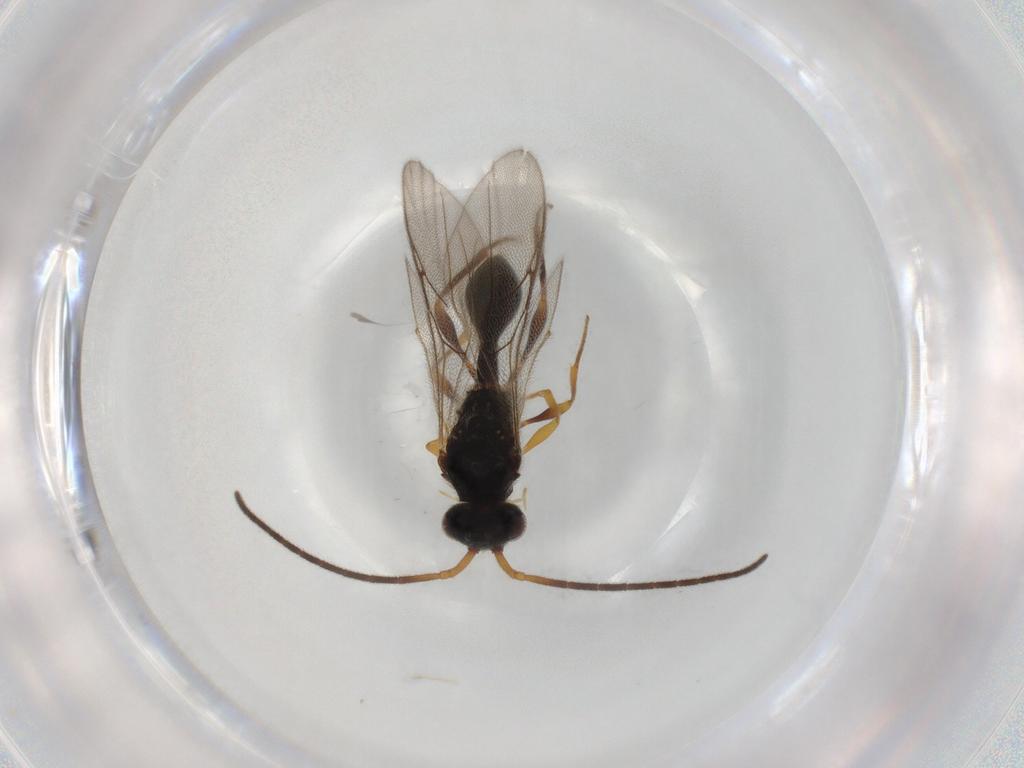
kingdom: Animalia
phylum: Arthropoda
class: Insecta
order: Hymenoptera
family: Diapriidae
